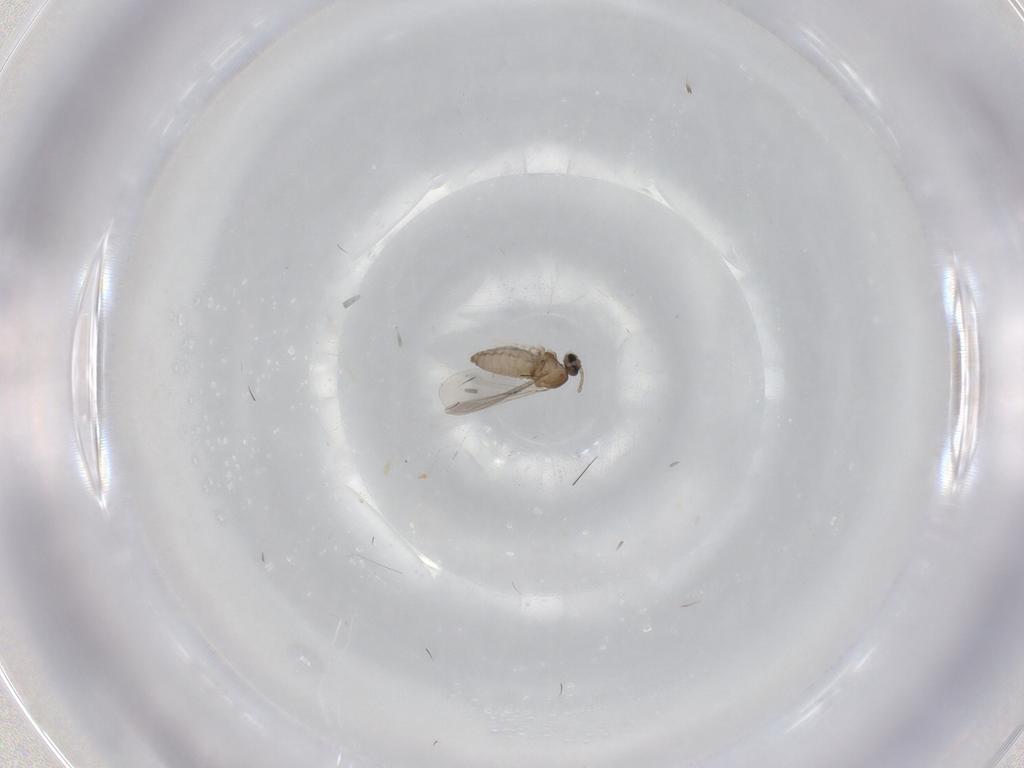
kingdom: Animalia
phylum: Arthropoda
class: Insecta
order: Diptera
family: Cecidomyiidae
